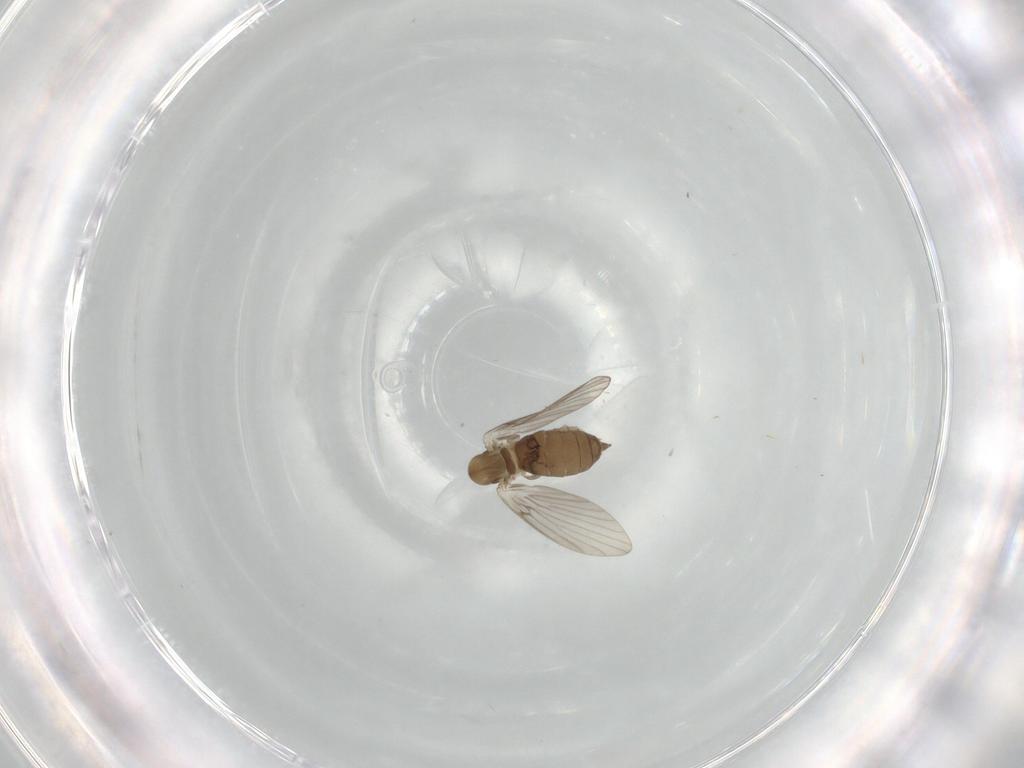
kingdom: Animalia
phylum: Arthropoda
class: Insecta
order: Diptera
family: Psychodidae
